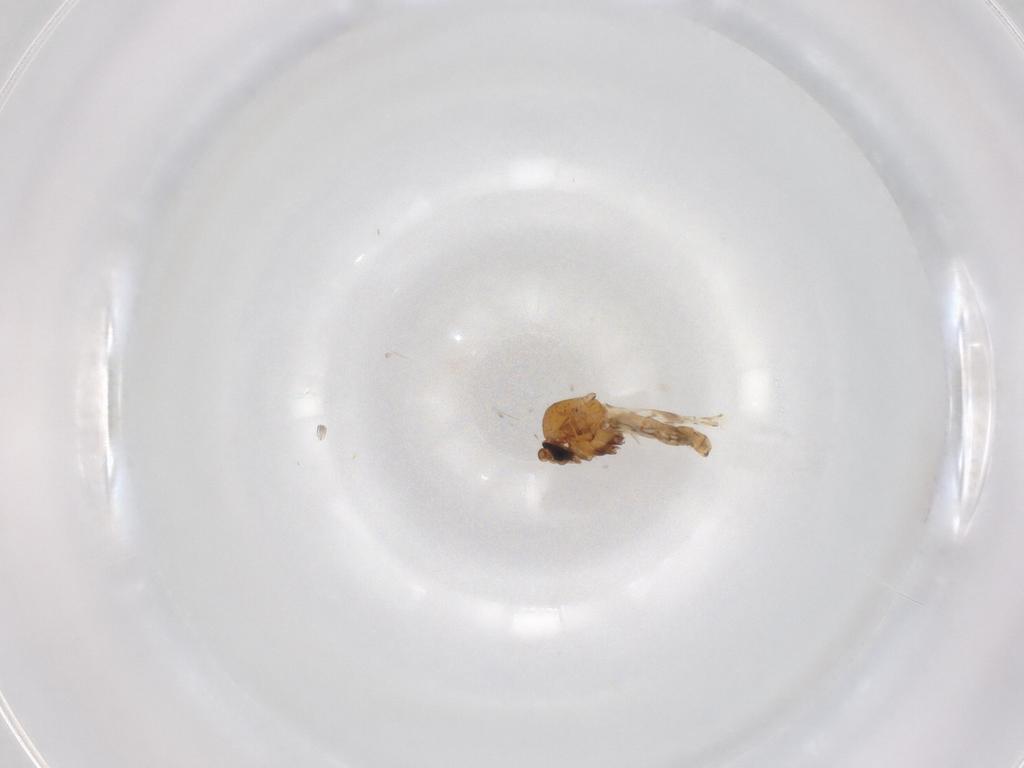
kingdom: Animalia
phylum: Arthropoda
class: Insecta
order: Diptera
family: Ceratopogonidae
